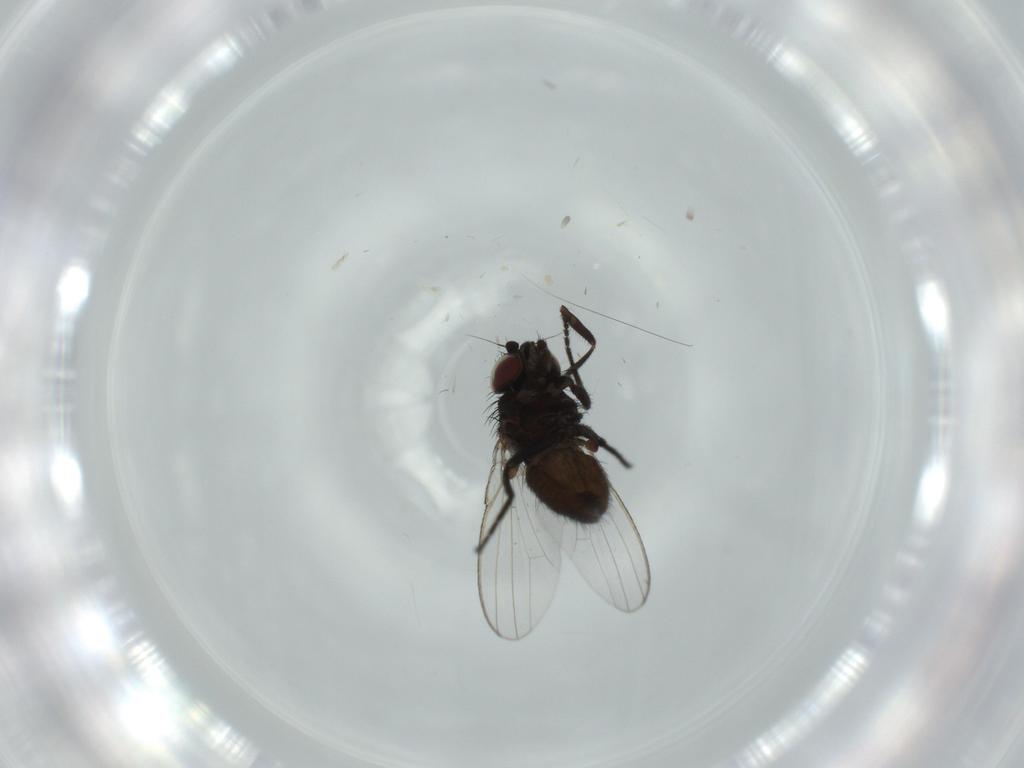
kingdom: Animalia
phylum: Arthropoda
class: Insecta
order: Diptera
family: Milichiidae
